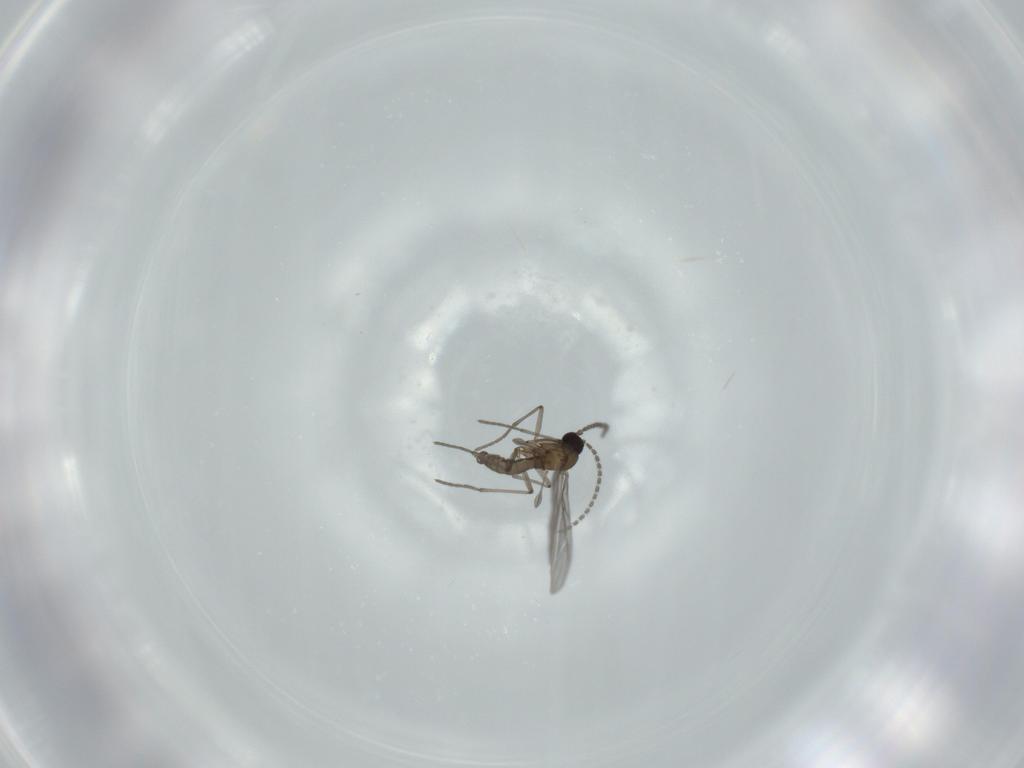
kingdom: Animalia
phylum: Arthropoda
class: Insecta
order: Diptera
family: Sciaridae
